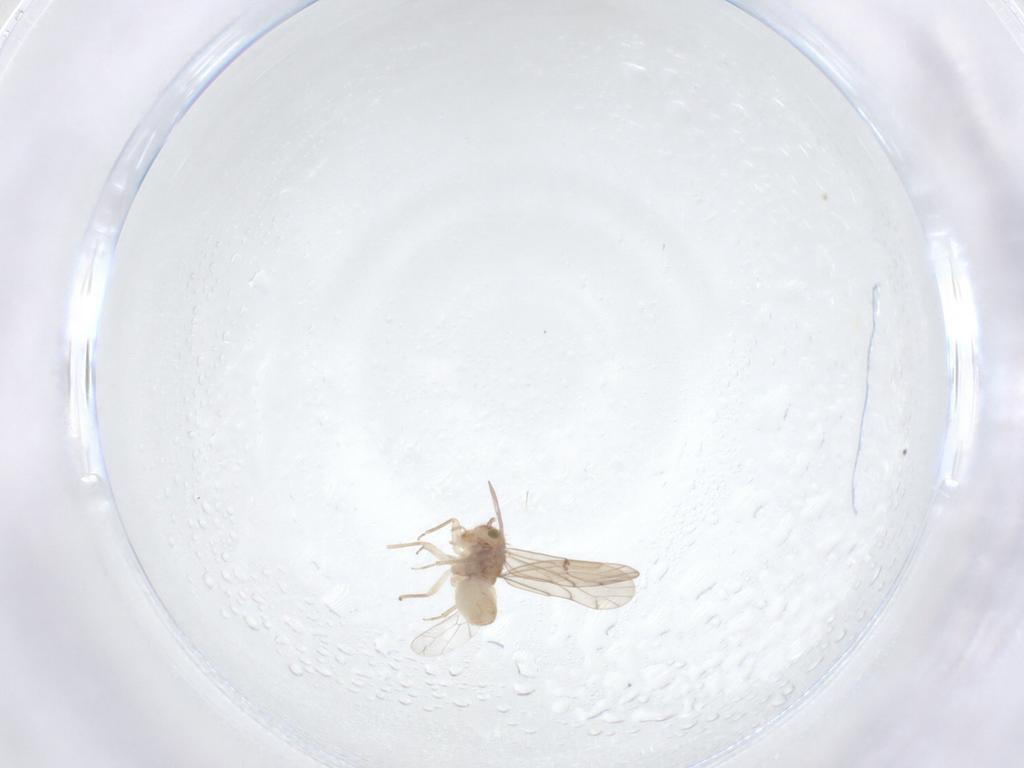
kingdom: Animalia
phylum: Arthropoda
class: Insecta
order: Psocodea
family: Ectopsocidae
